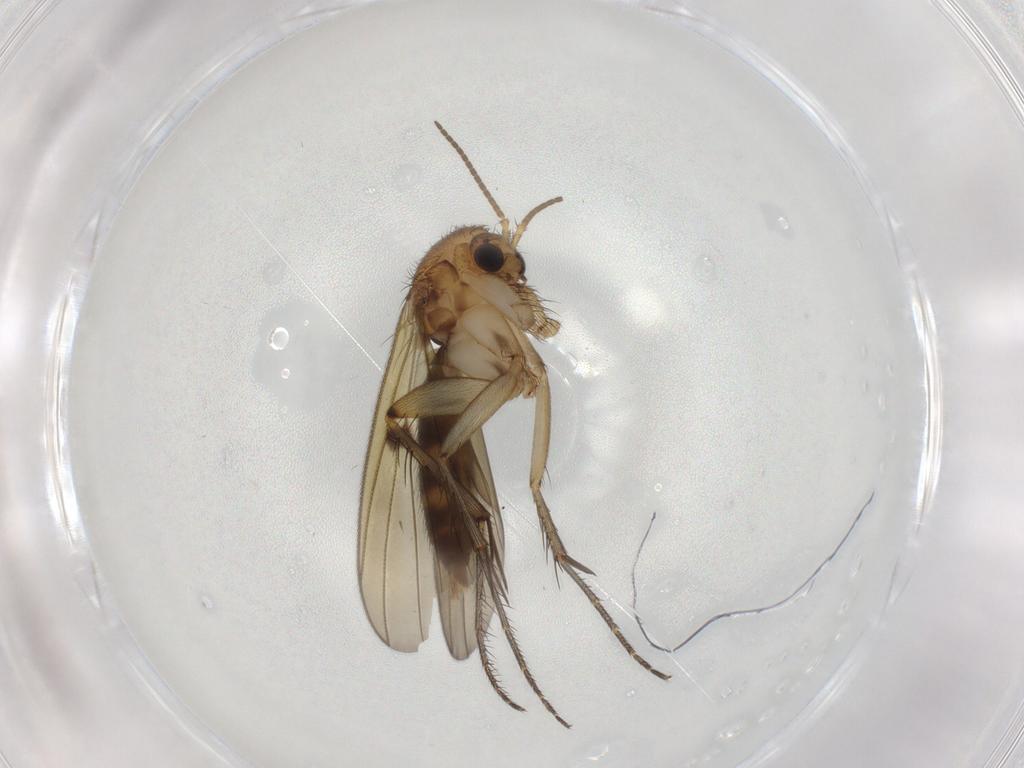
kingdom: Animalia
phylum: Arthropoda
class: Insecta
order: Diptera
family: Mycetophilidae
